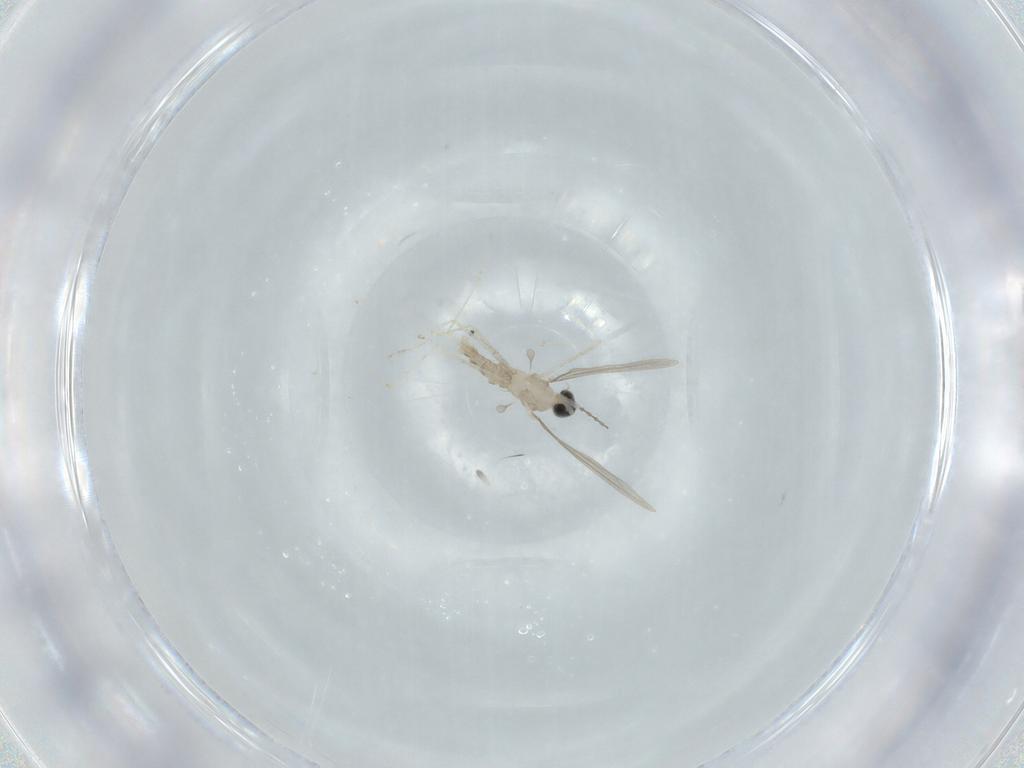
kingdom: Animalia
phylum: Arthropoda
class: Insecta
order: Diptera
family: Cecidomyiidae
